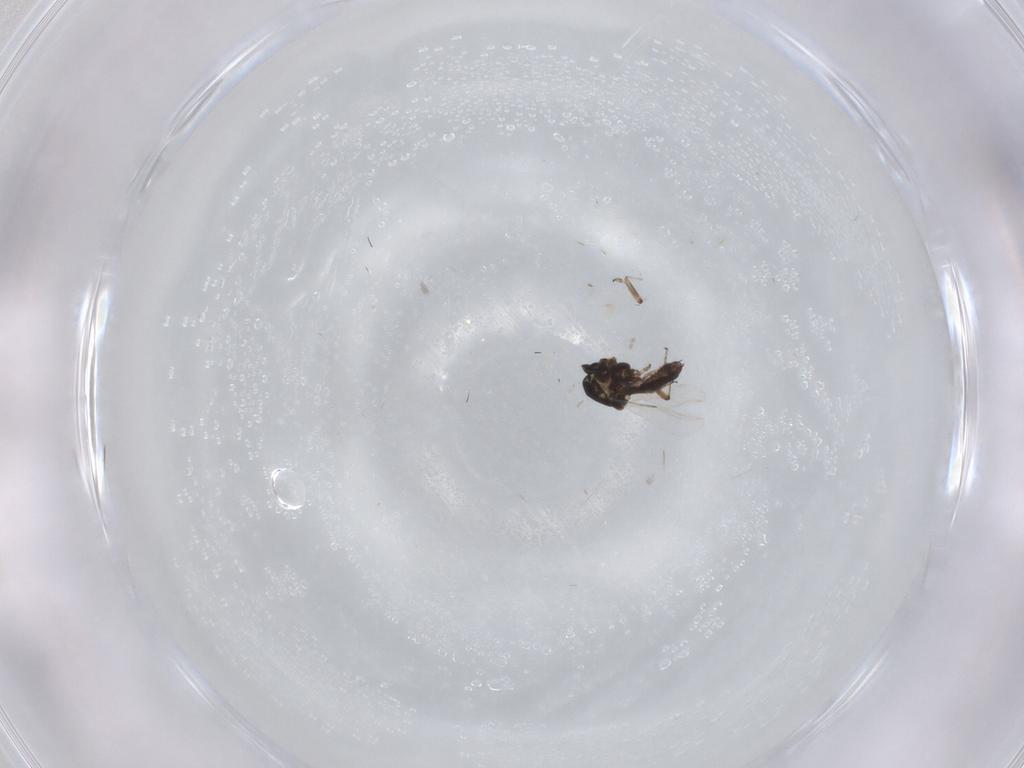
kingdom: Animalia
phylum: Arthropoda
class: Insecta
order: Diptera
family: Ceratopogonidae
